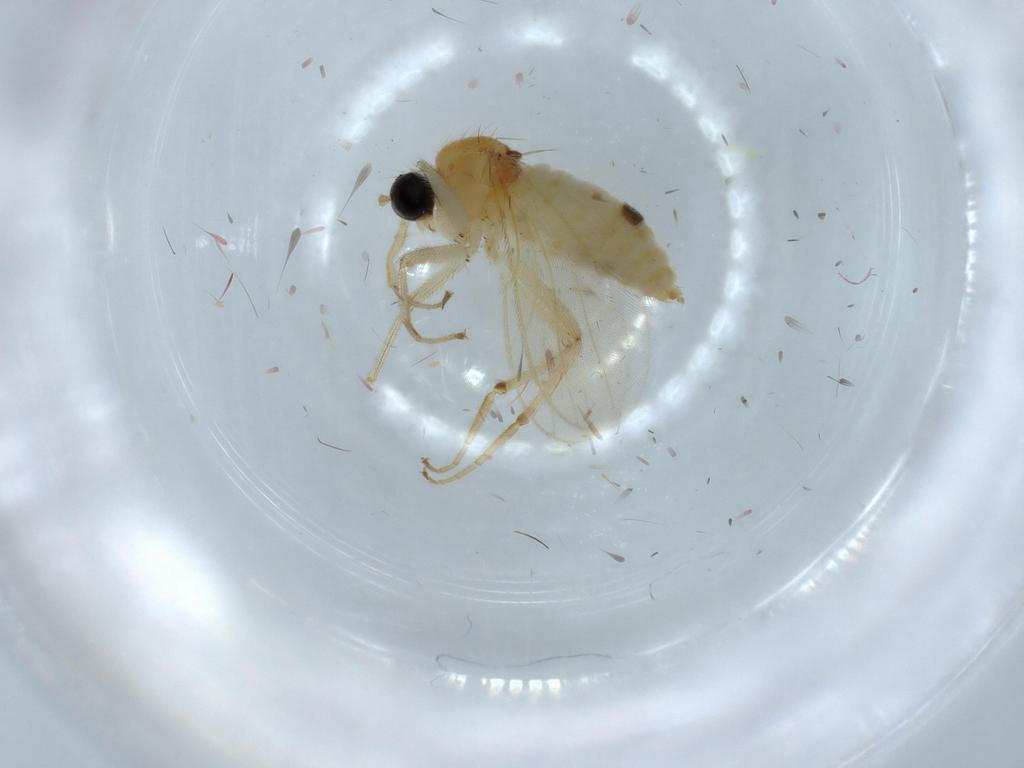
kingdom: Animalia
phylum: Arthropoda
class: Insecta
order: Diptera
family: Hybotidae
